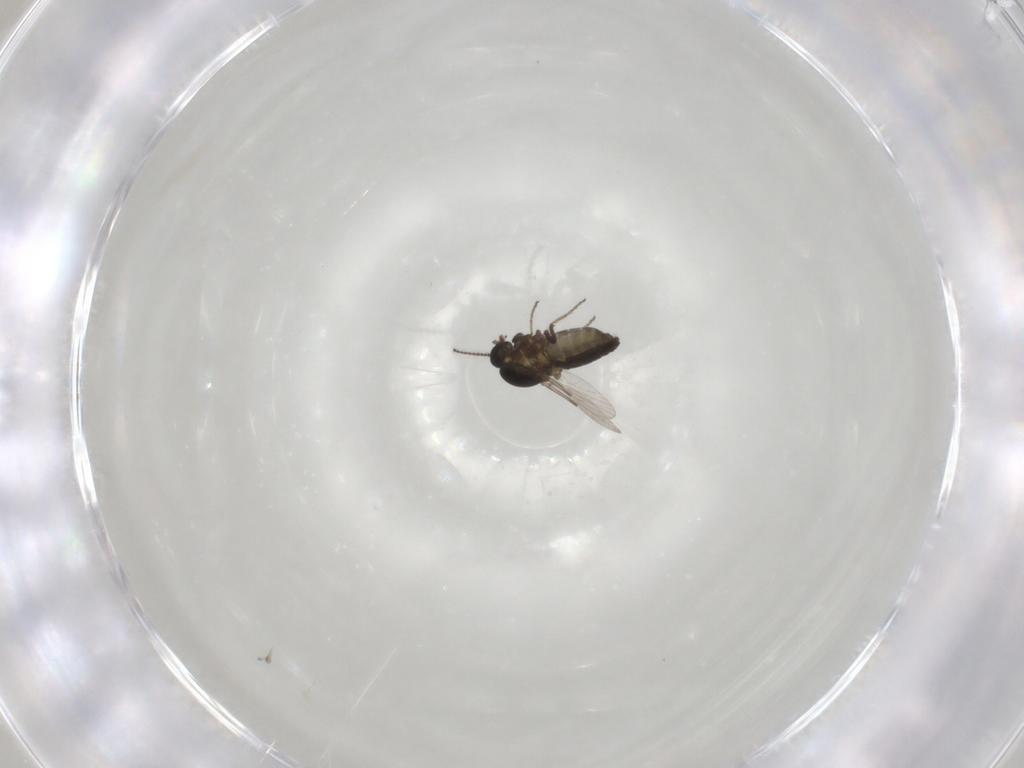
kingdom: Animalia
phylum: Arthropoda
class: Insecta
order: Diptera
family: Ceratopogonidae
